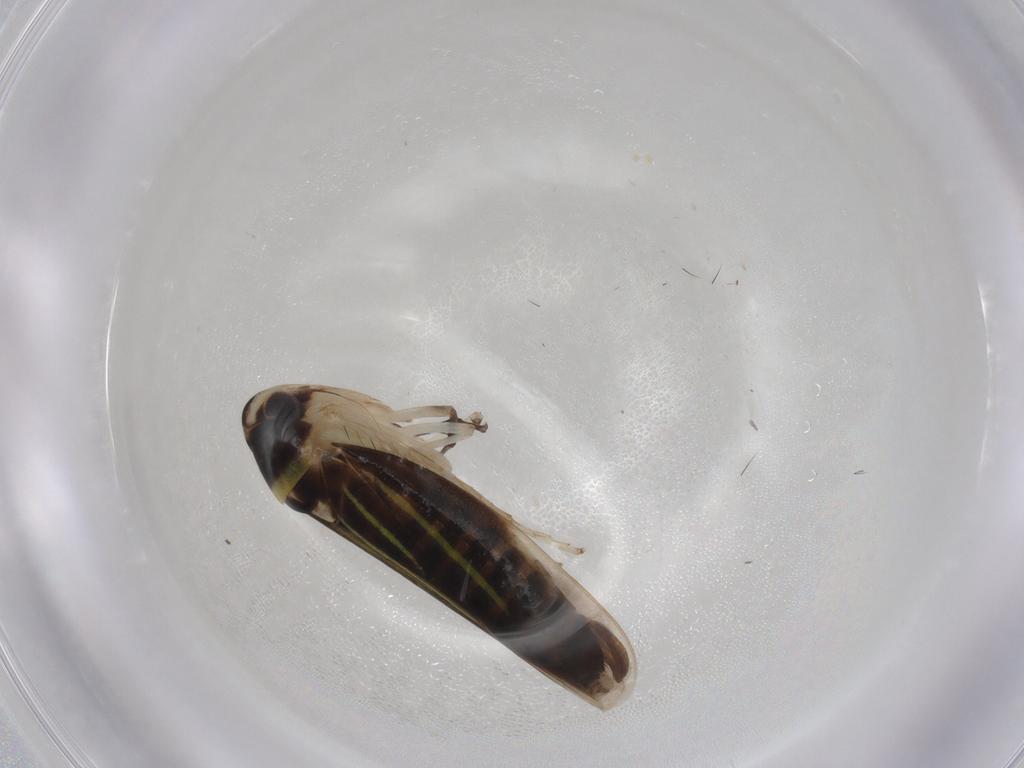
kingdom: Animalia
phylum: Arthropoda
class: Insecta
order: Hemiptera
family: Cicadellidae
